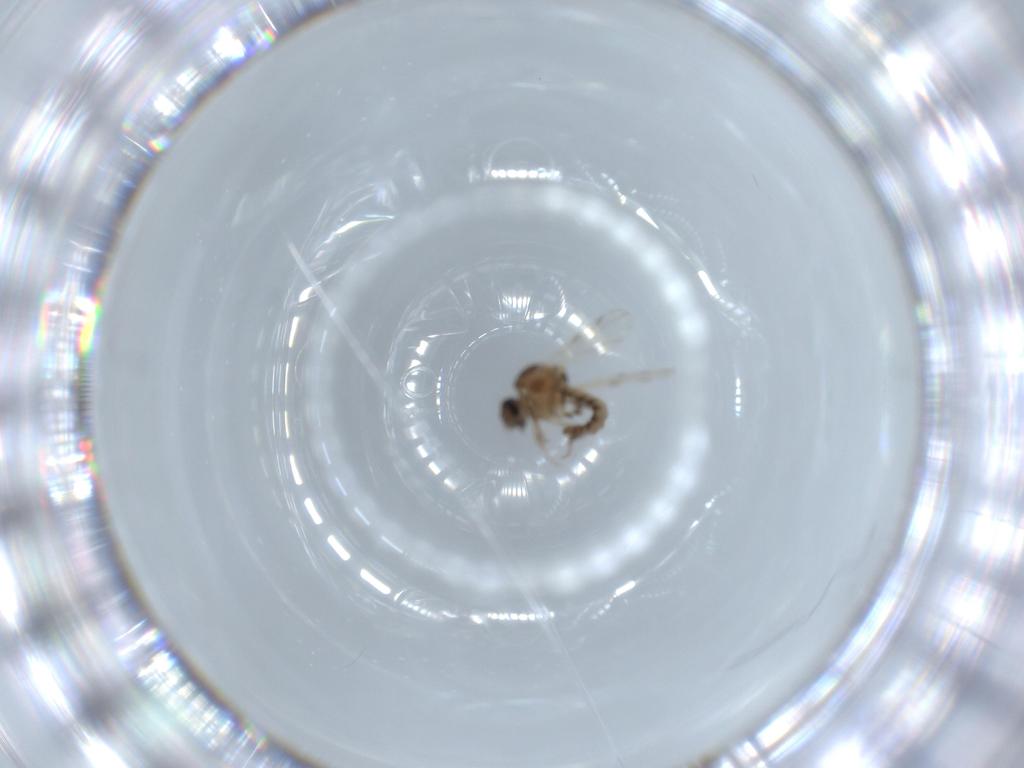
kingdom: Animalia
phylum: Arthropoda
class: Insecta
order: Diptera
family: Ceratopogonidae
